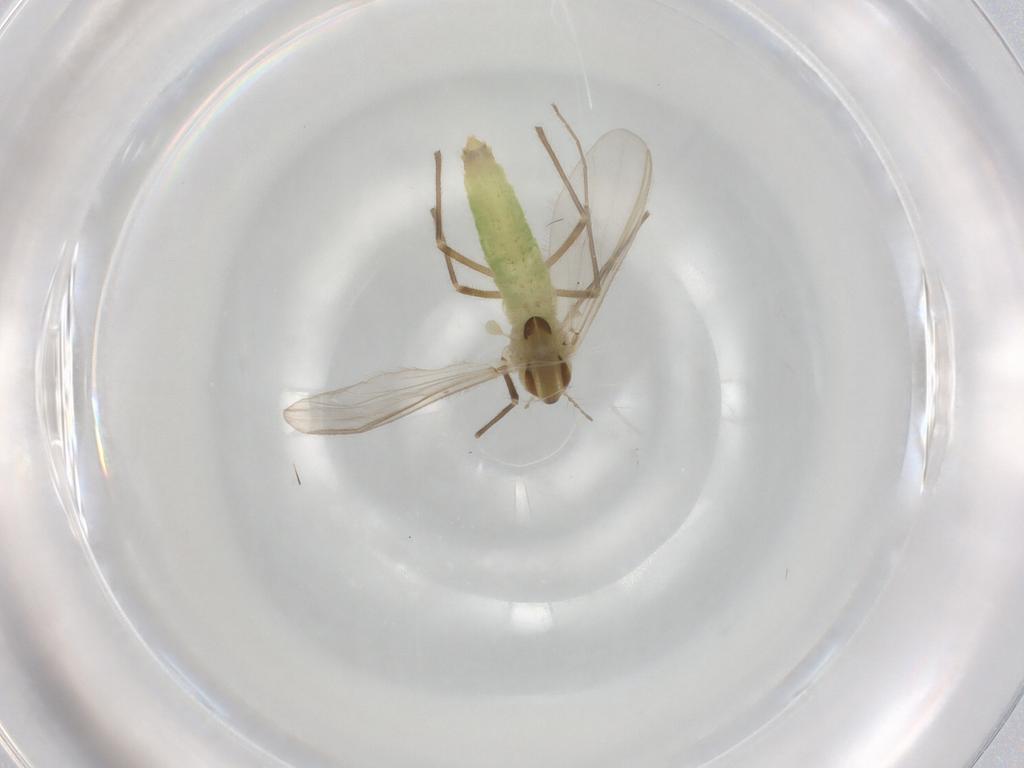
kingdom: Animalia
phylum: Arthropoda
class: Insecta
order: Diptera
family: Chironomidae
